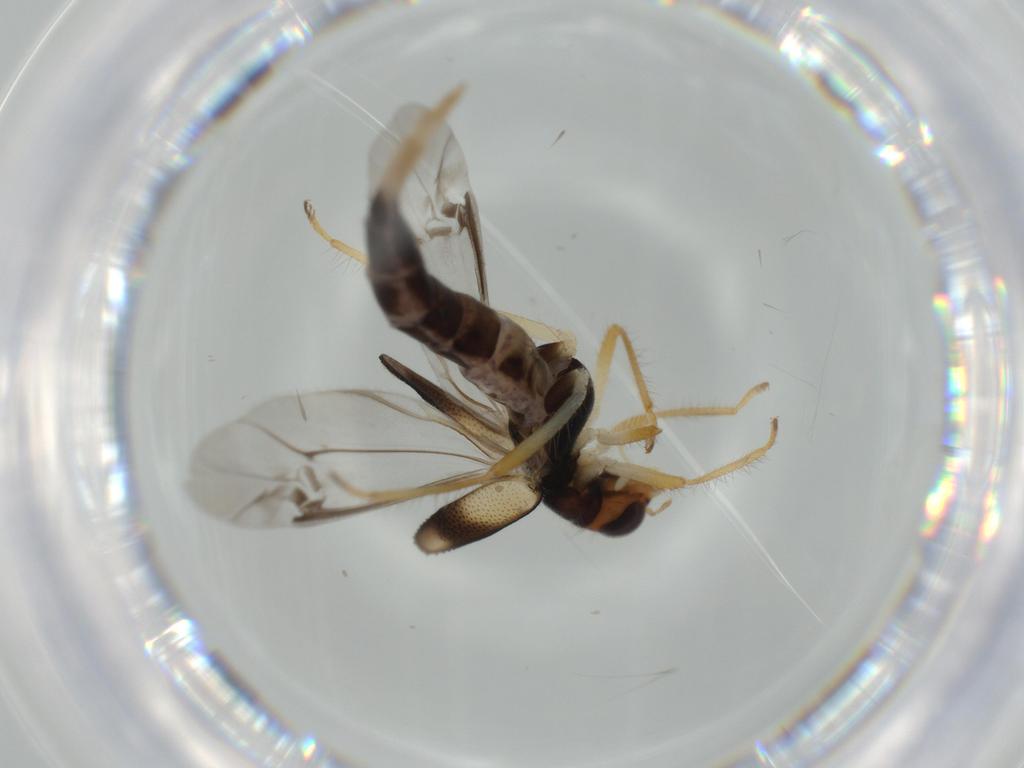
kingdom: Animalia
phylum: Arthropoda
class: Insecta
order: Coleoptera
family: Cleridae
